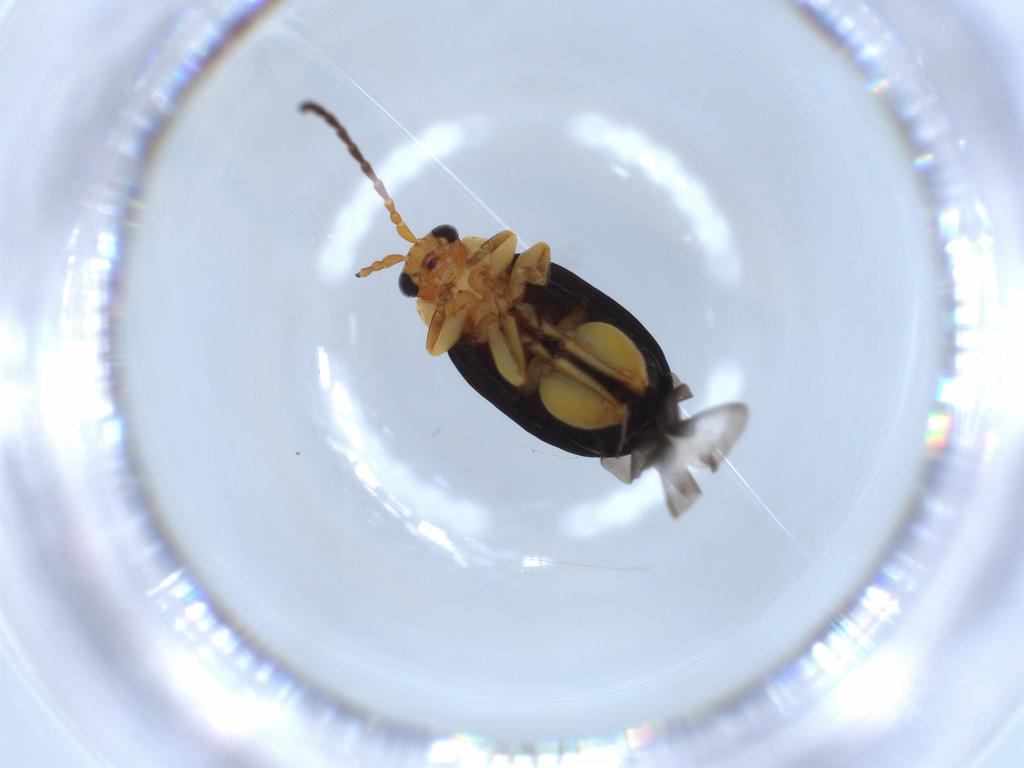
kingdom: Animalia
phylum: Arthropoda
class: Insecta
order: Coleoptera
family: Aderidae
